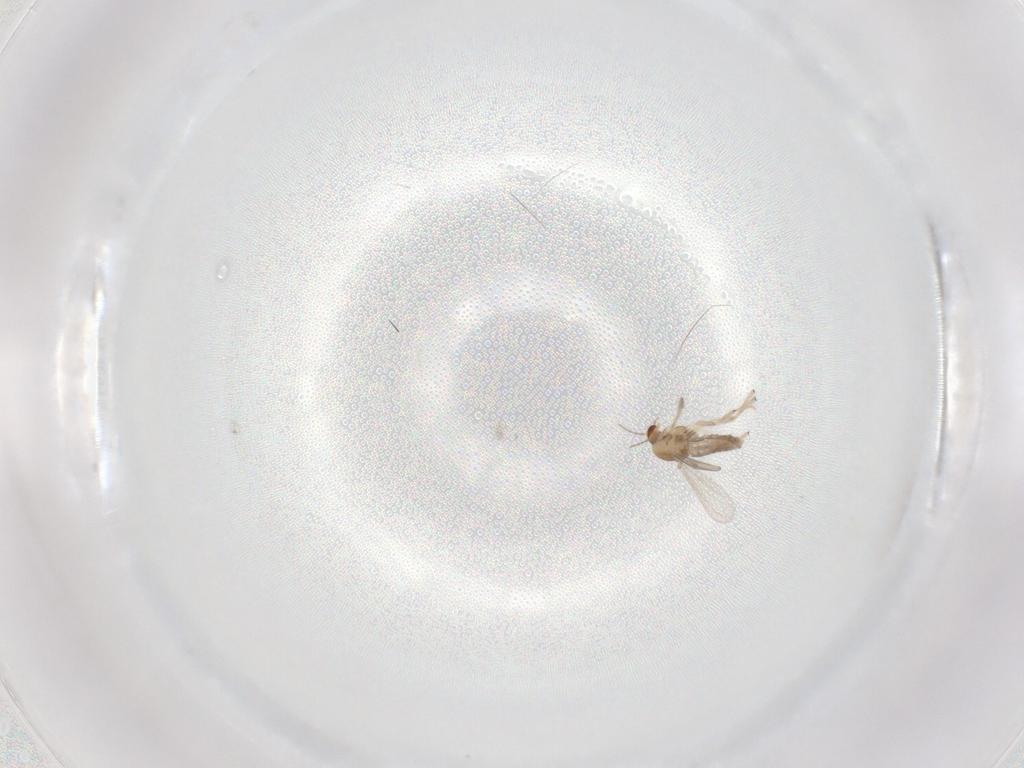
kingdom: Animalia
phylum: Arthropoda
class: Insecta
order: Diptera
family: Chironomidae
